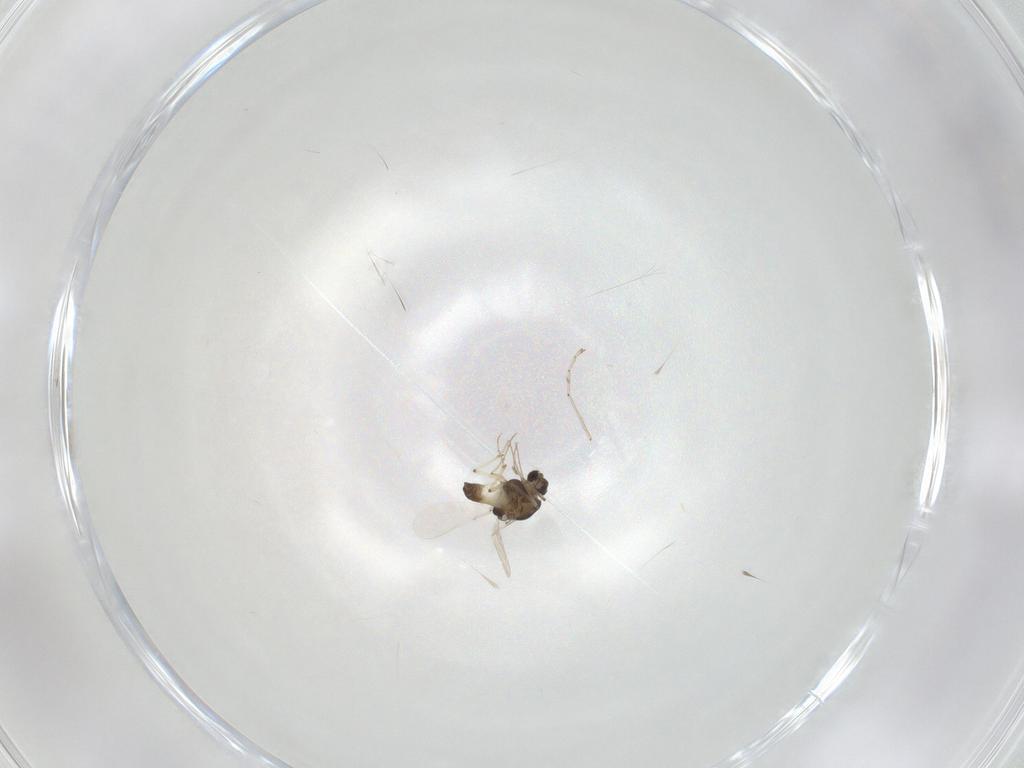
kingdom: Animalia
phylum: Arthropoda
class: Insecta
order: Diptera
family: Chironomidae
